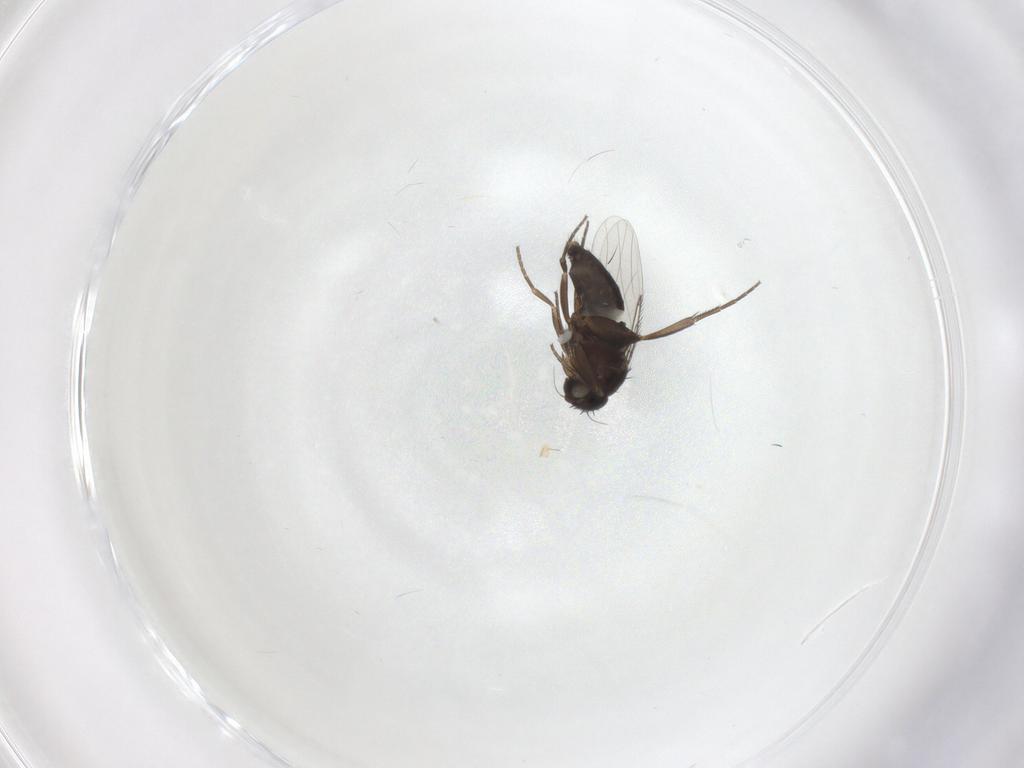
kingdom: Animalia
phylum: Arthropoda
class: Insecta
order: Diptera
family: Phoridae
